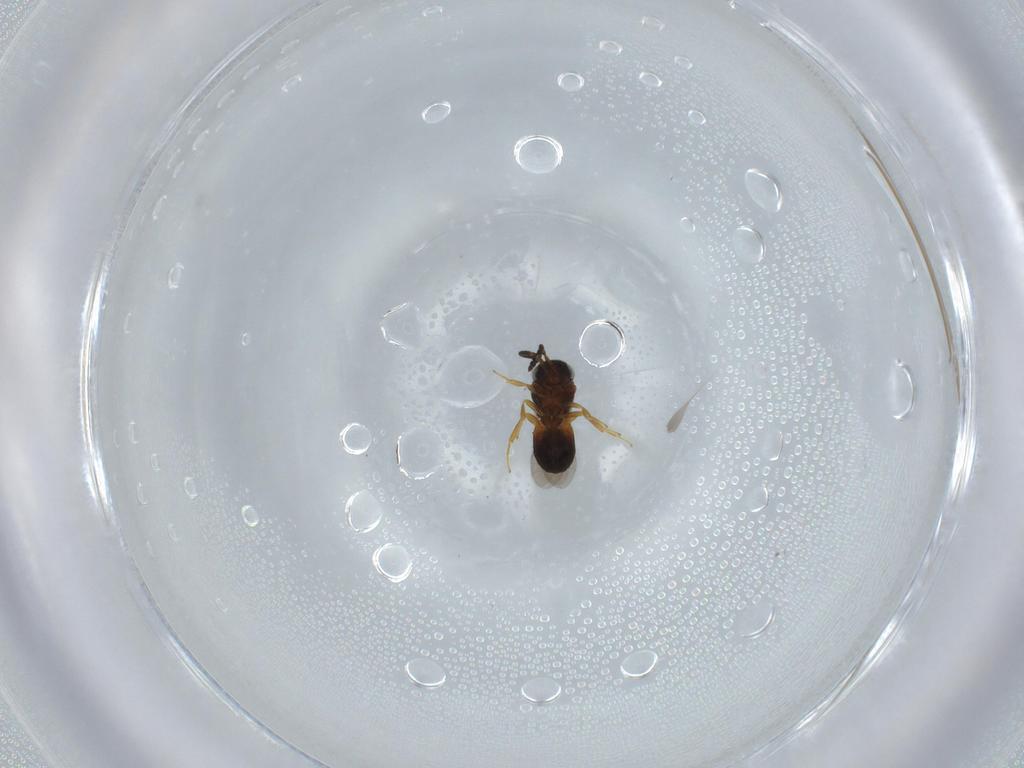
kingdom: Animalia
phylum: Arthropoda
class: Insecta
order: Hymenoptera
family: Scelionidae
